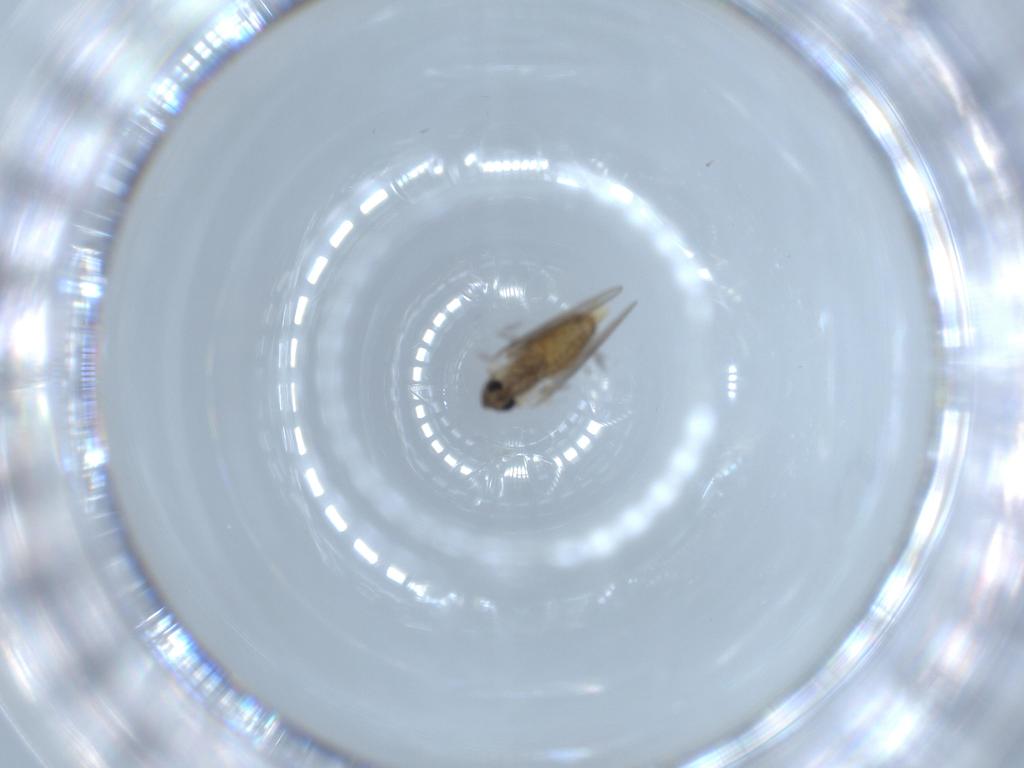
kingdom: Animalia
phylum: Arthropoda
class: Insecta
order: Diptera
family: Psychodidae
